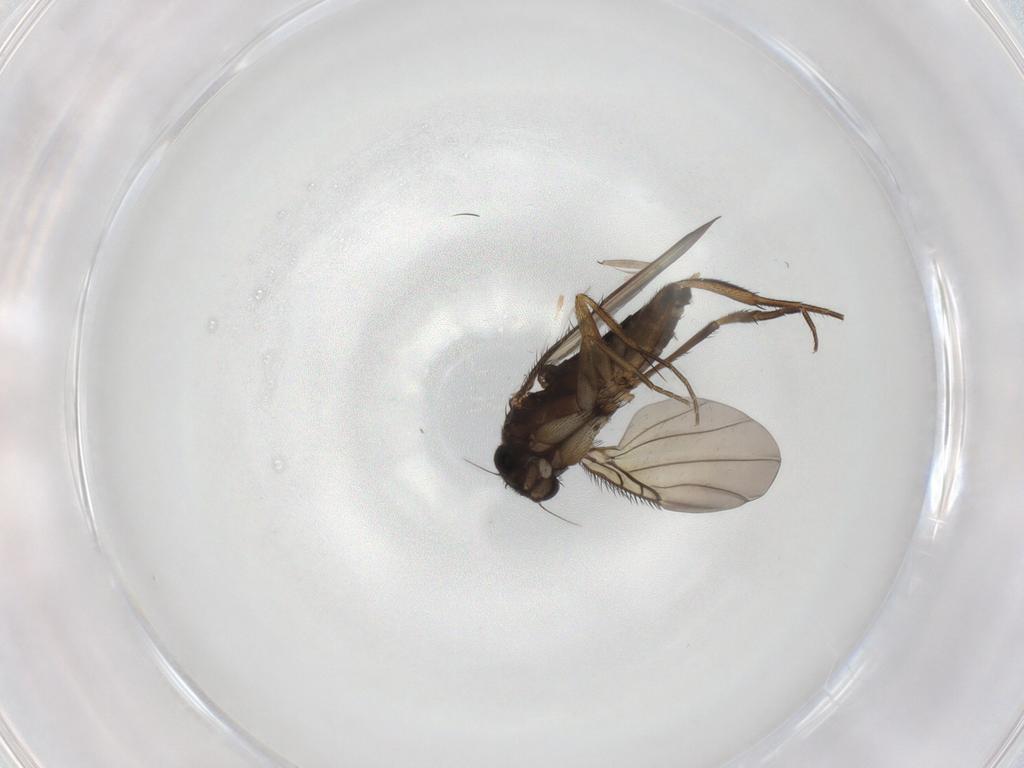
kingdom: Animalia
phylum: Arthropoda
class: Insecta
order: Diptera
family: Phoridae
